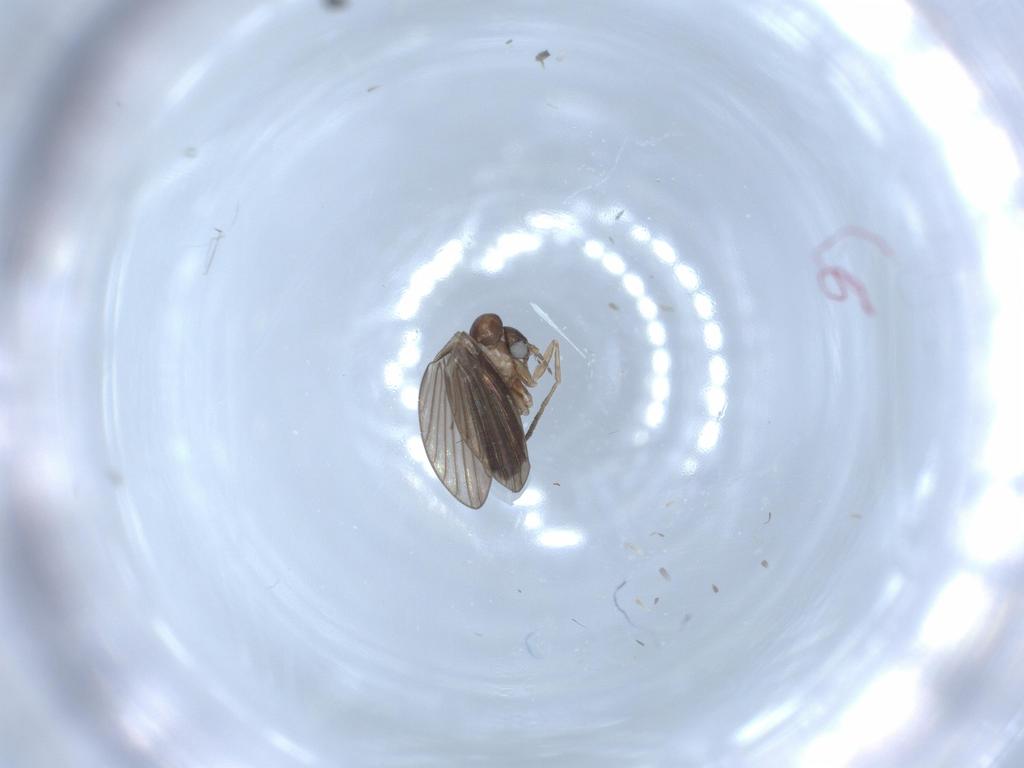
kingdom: Animalia
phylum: Arthropoda
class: Insecta
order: Diptera
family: Psychodidae
